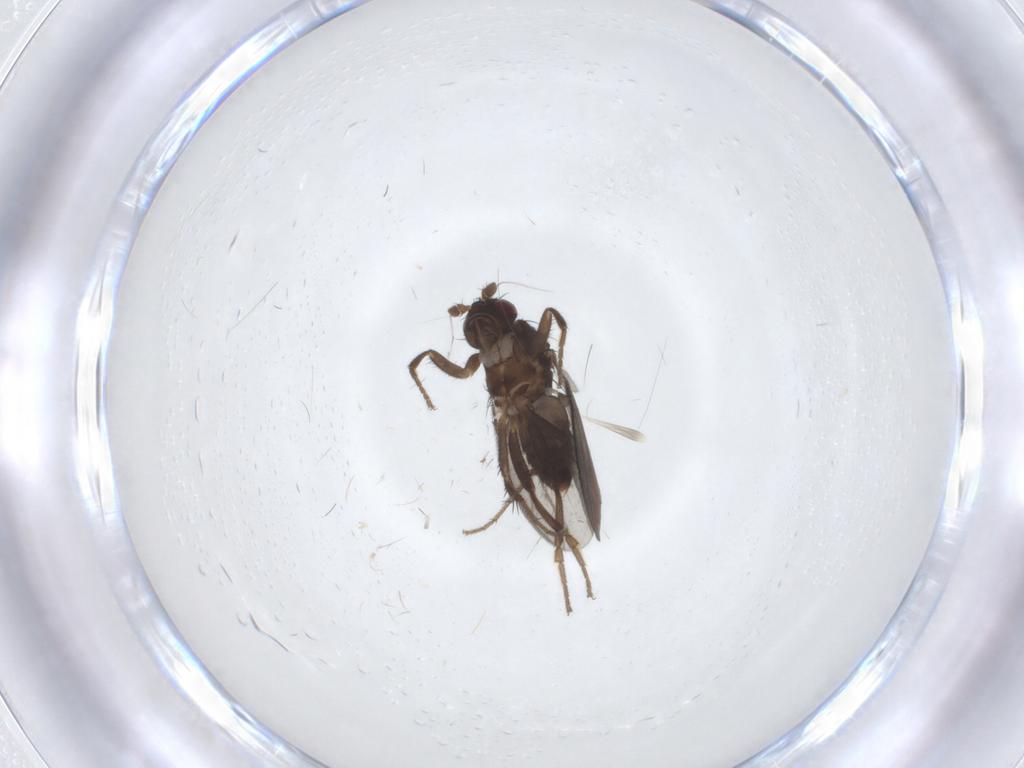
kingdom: Animalia
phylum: Arthropoda
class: Insecta
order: Diptera
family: Sphaeroceridae
